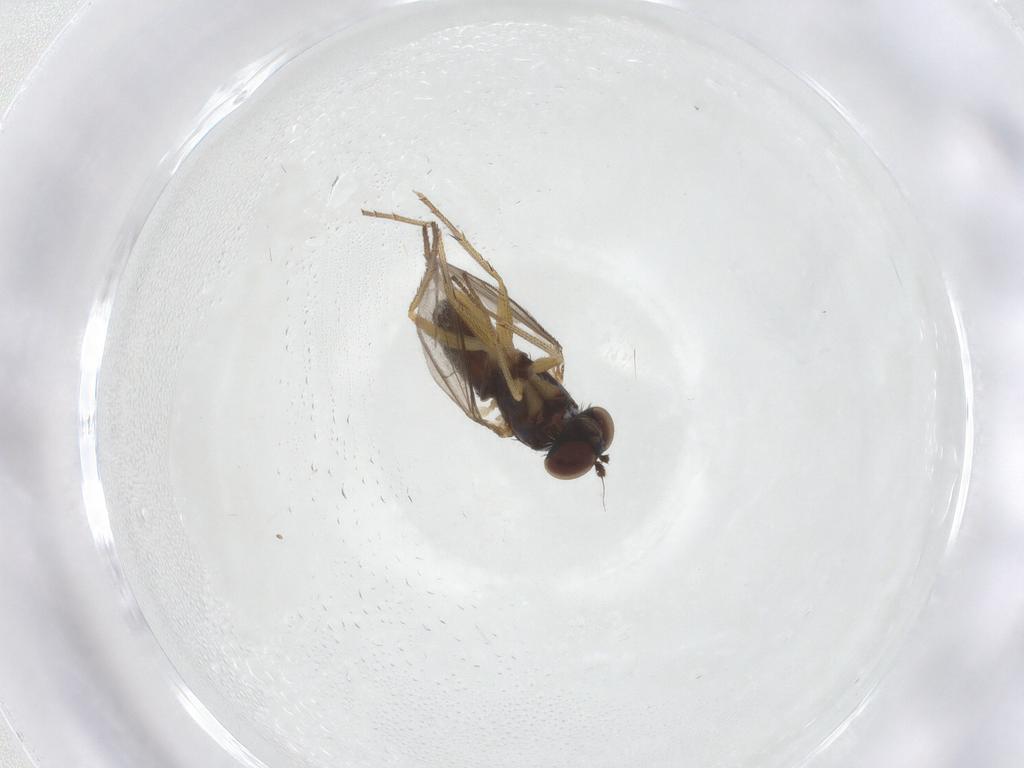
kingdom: Animalia
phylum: Arthropoda
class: Insecta
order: Diptera
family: Dolichopodidae
